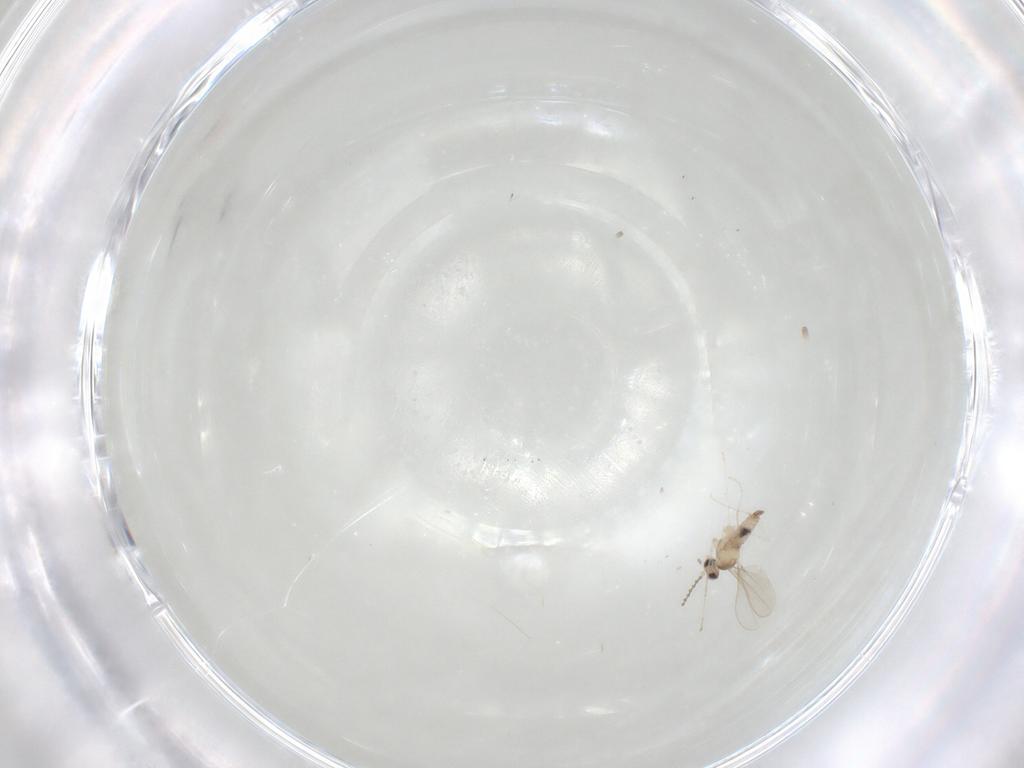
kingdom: Animalia
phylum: Arthropoda
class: Insecta
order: Diptera
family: Cecidomyiidae
